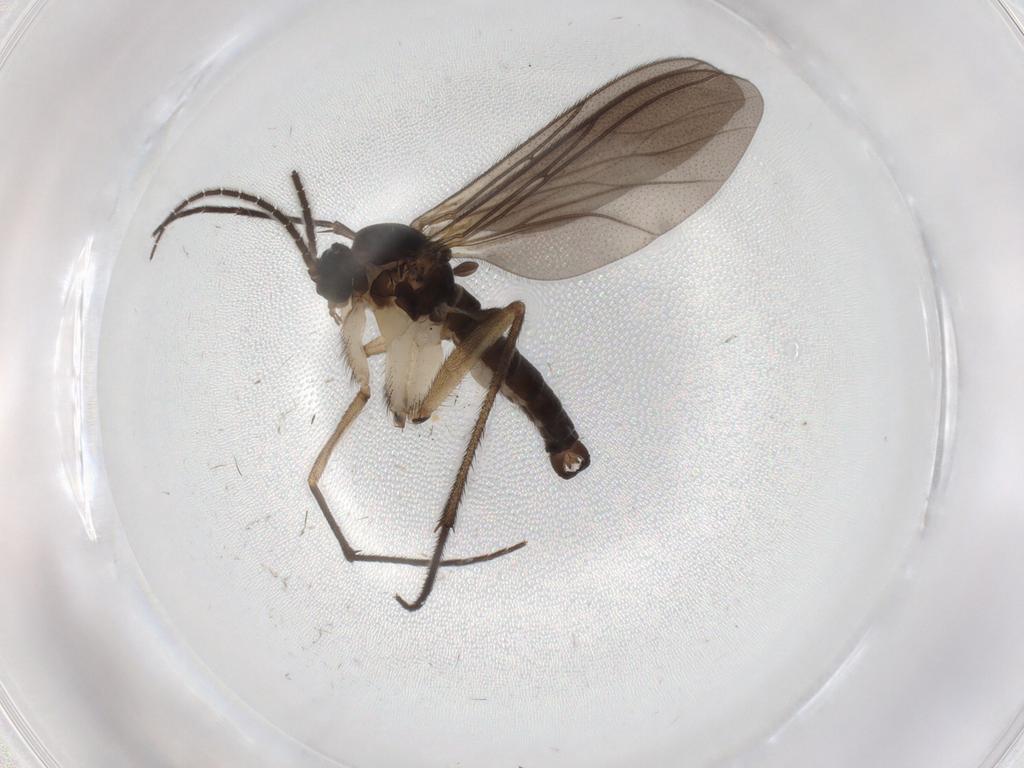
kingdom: Animalia
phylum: Arthropoda
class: Insecta
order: Diptera
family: Sciaridae
